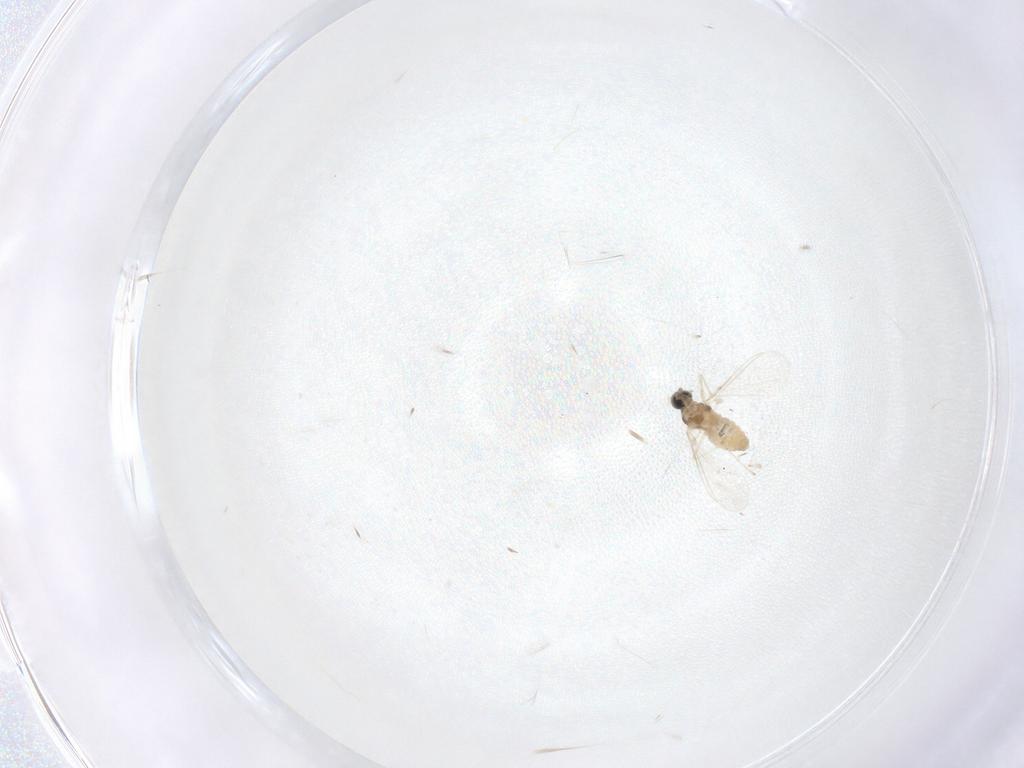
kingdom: Animalia
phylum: Arthropoda
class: Insecta
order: Diptera
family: Cecidomyiidae
